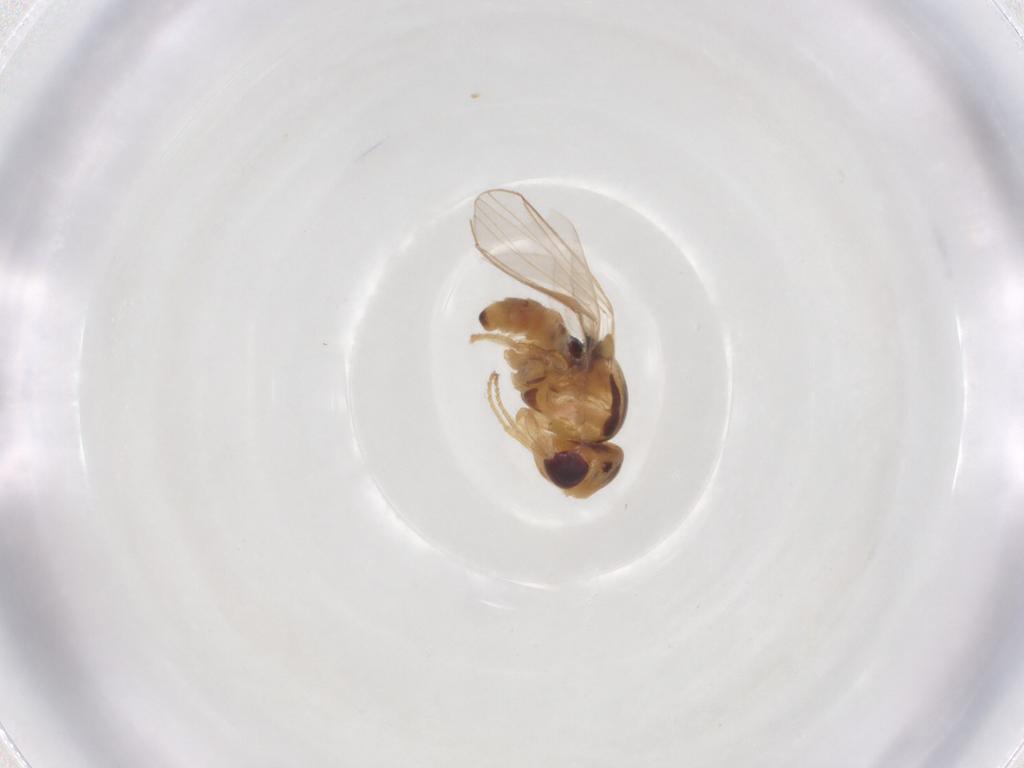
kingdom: Animalia
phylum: Arthropoda
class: Insecta
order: Diptera
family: Chloropidae
